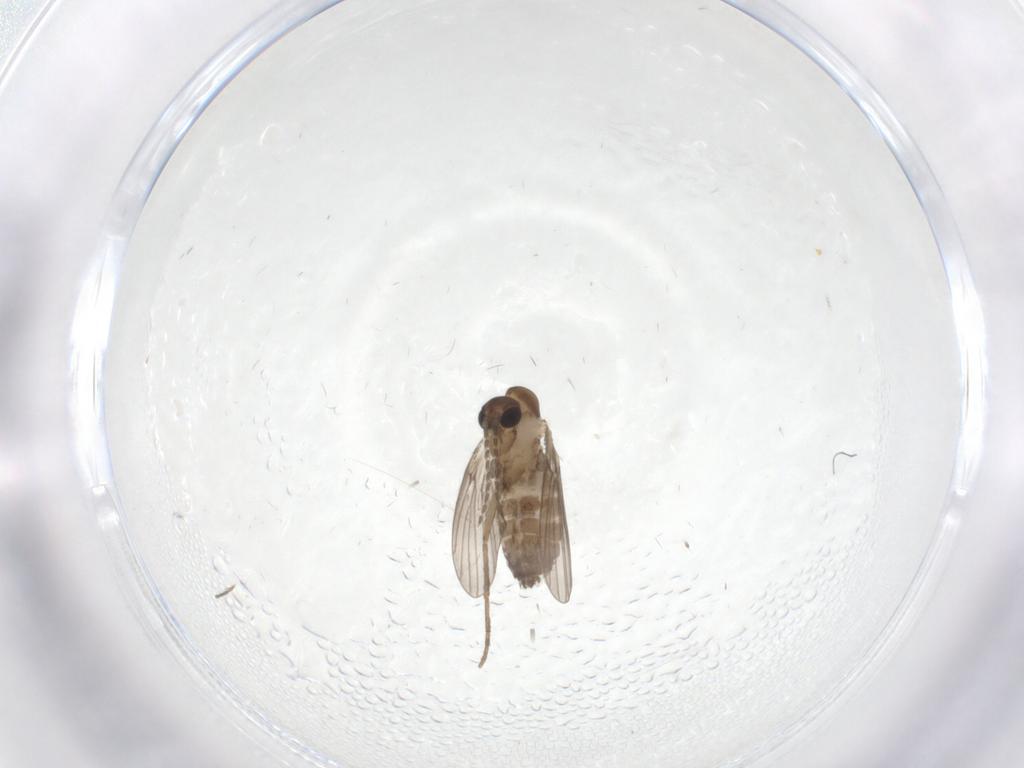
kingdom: Animalia
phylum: Arthropoda
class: Insecta
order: Diptera
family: Psychodidae
